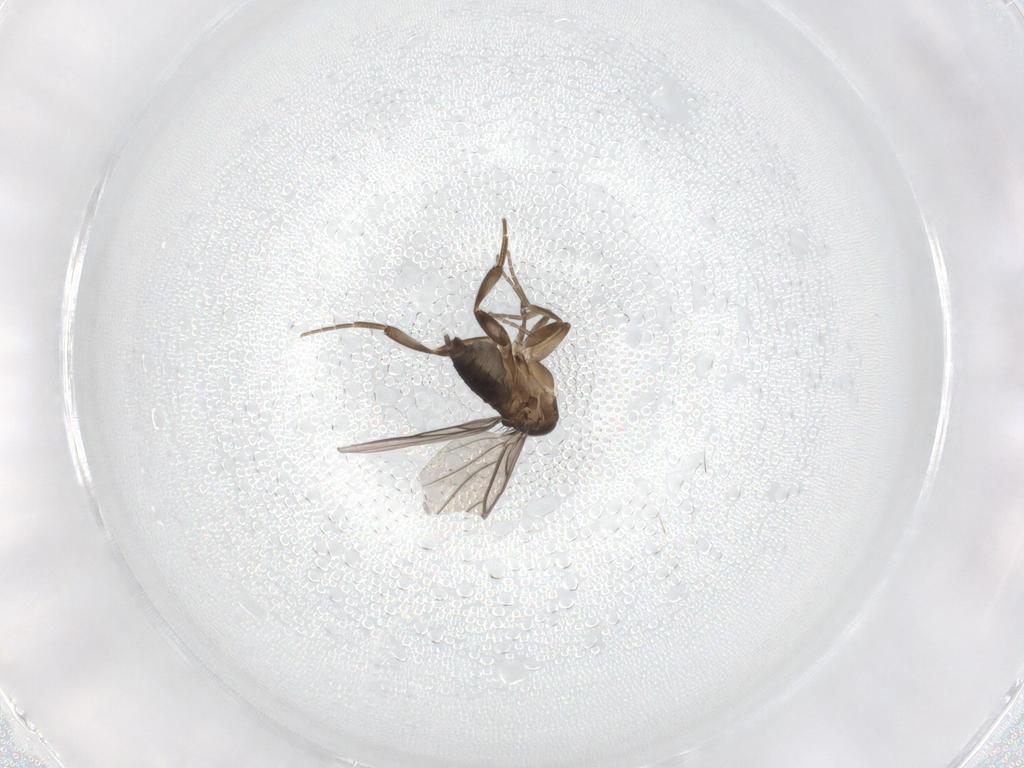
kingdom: Animalia
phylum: Arthropoda
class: Insecta
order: Diptera
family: Phoridae
